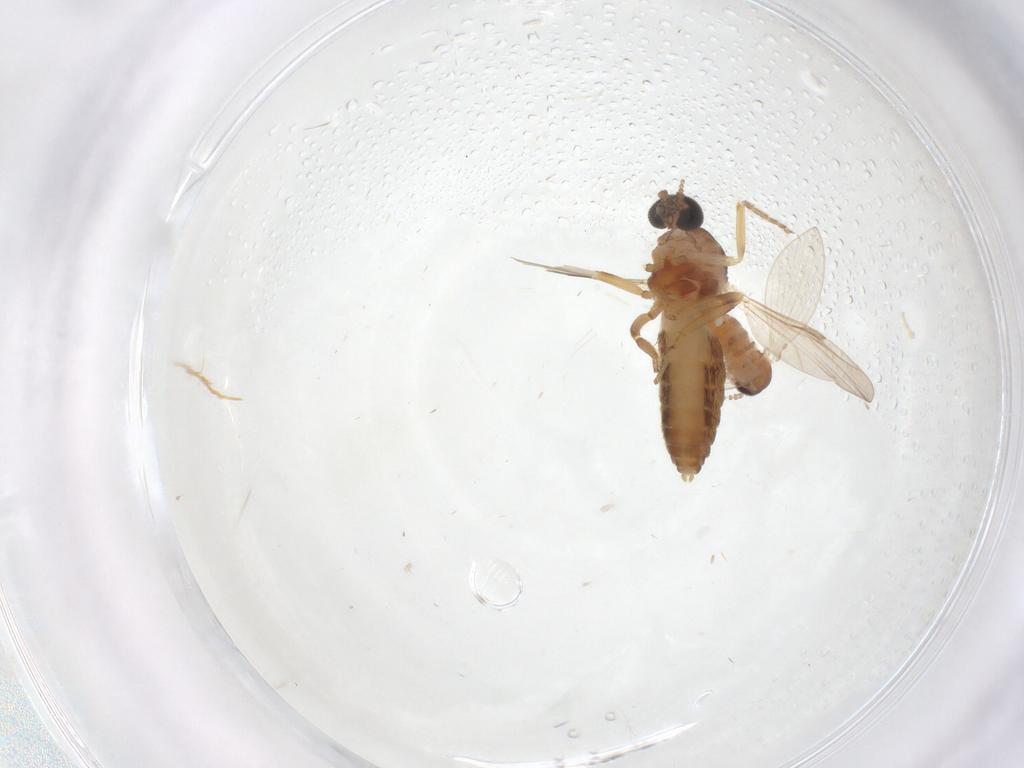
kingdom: Animalia
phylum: Arthropoda
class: Insecta
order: Diptera
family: Ceratopogonidae
